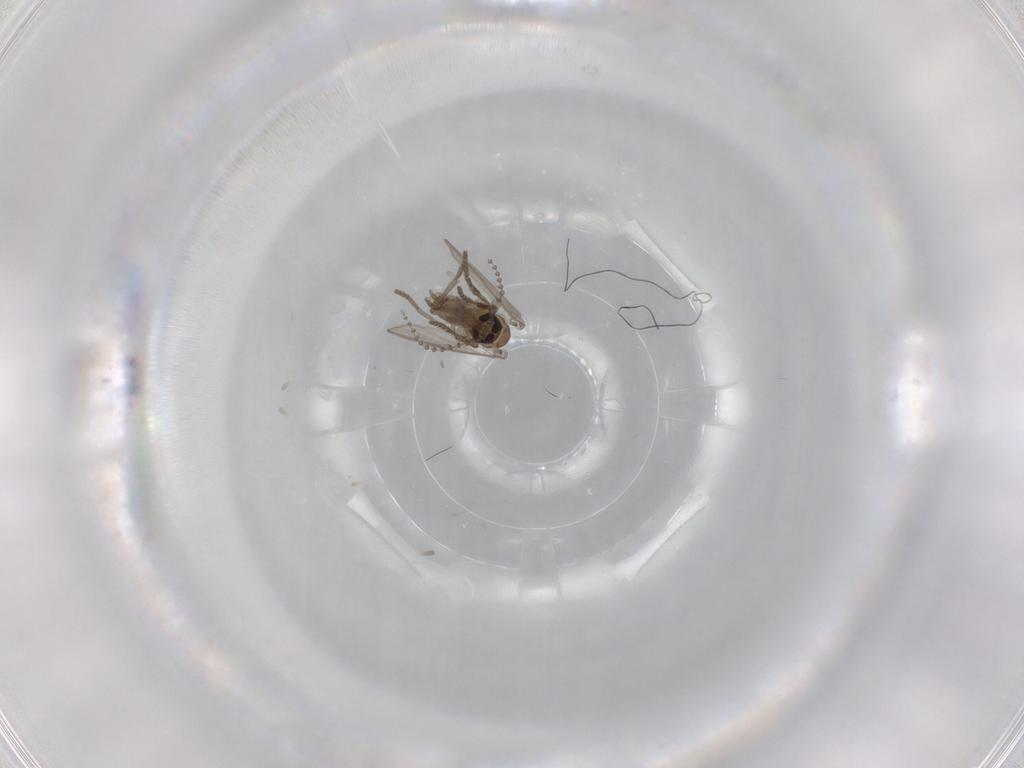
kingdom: Animalia
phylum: Arthropoda
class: Insecta
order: Diptera
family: Psychodidae
